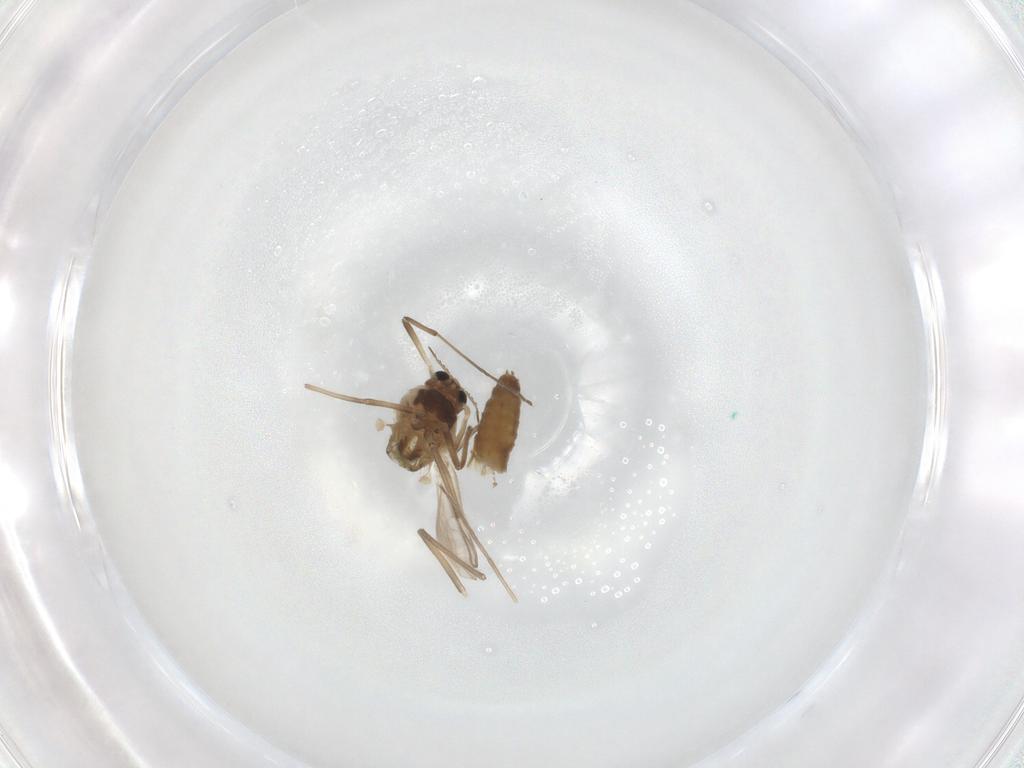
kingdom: Animalia
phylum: Arthropoda
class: Insecta
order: Diptera
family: Chironomidae
